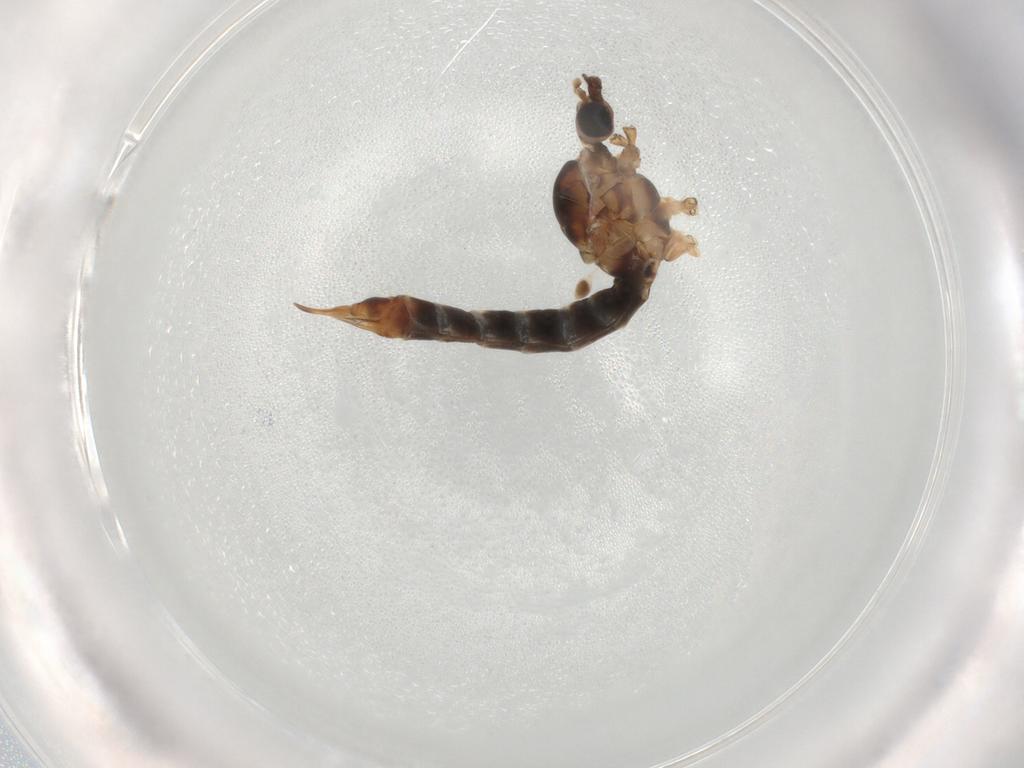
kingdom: Animalia
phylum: Arthropoda
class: Insecta
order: Diptera
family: Limoniidae
